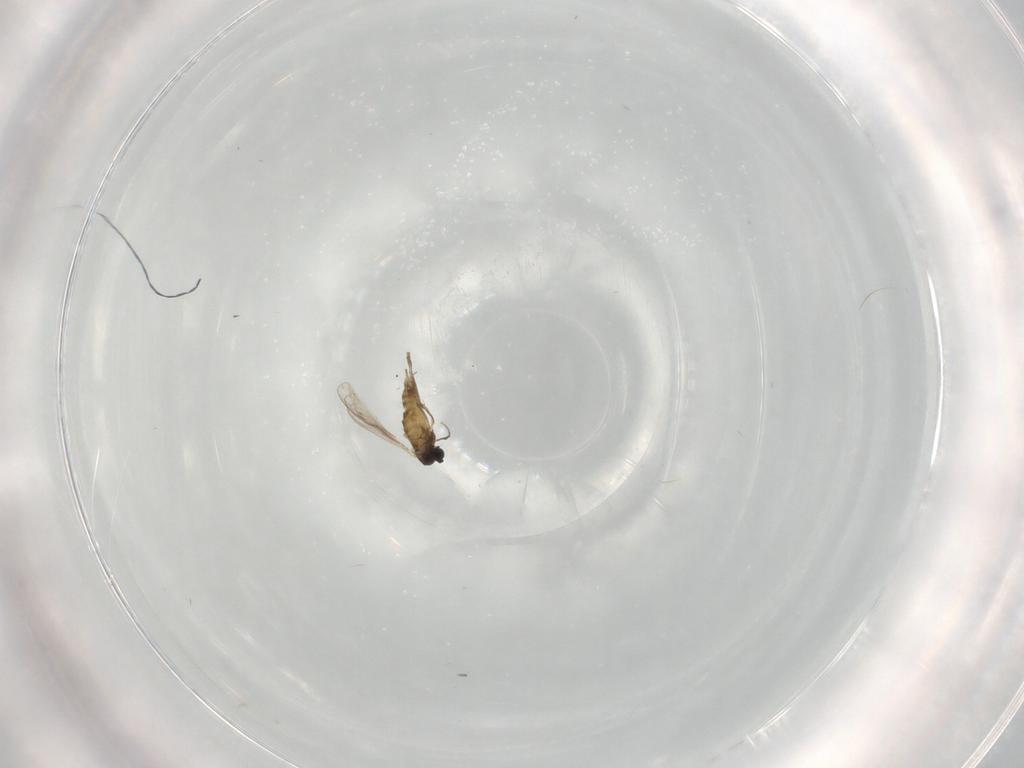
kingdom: Animalia
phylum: Arthropoda
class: Insecta
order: Diptera
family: Chironomidae
